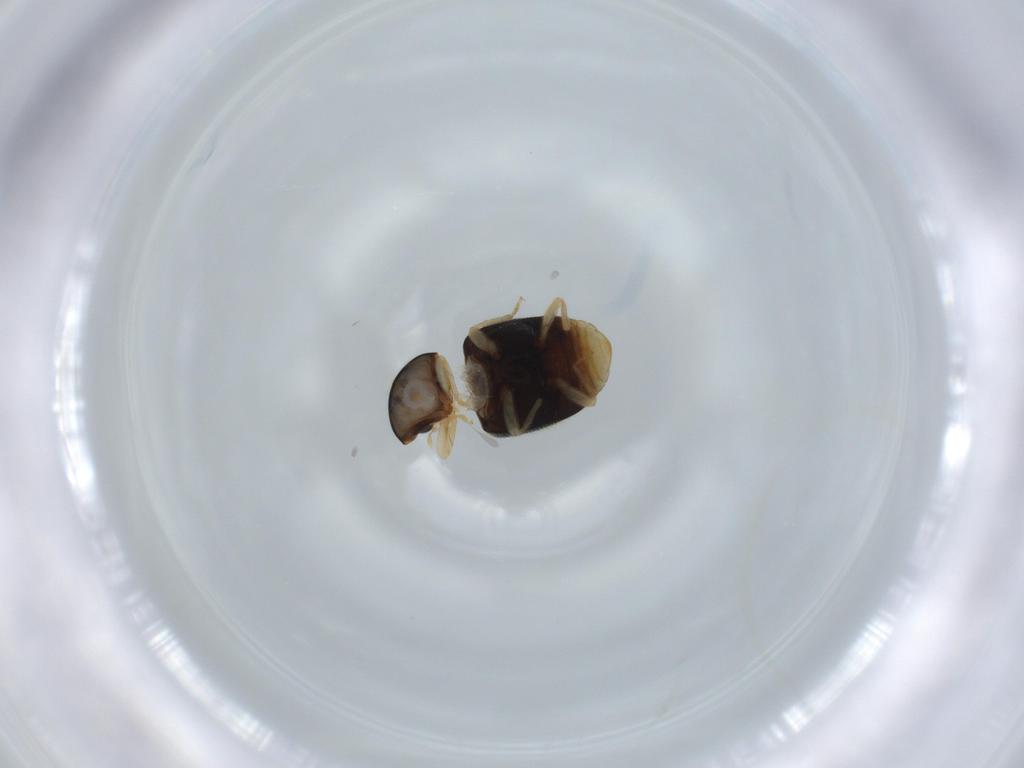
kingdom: Animalia
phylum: Arthropoda
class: Insecta
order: Coleoptera
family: Coccinellidae
